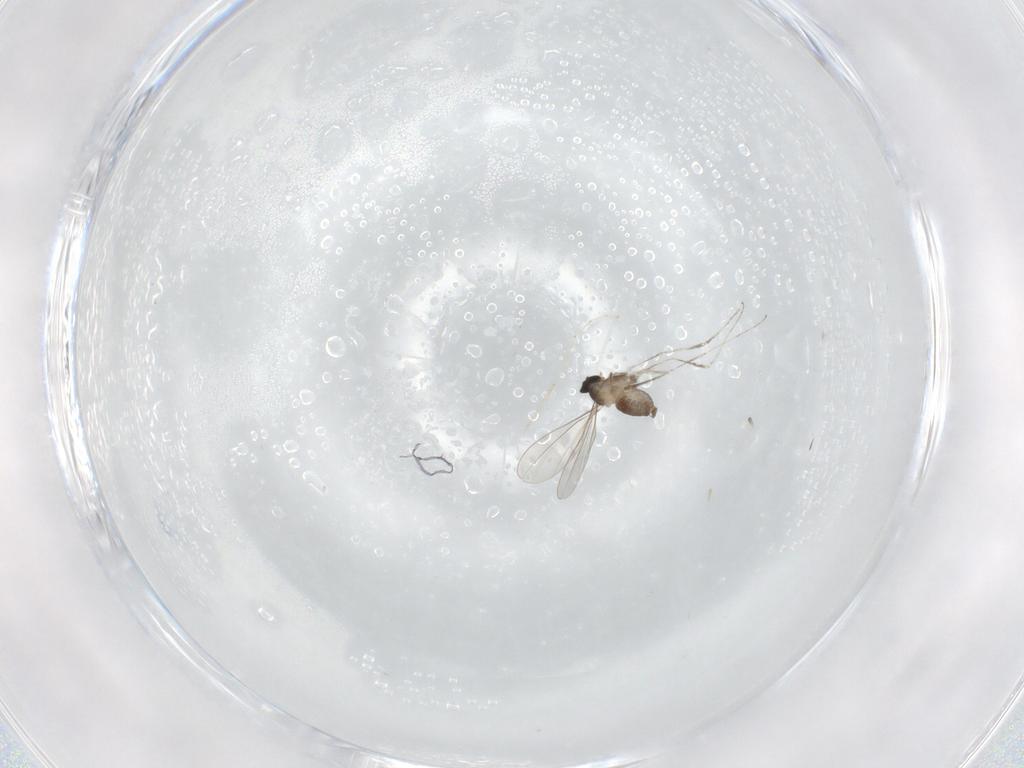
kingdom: Animalia
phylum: Arthropoda
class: Insecta
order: Diptera
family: Cecidomyiidae
